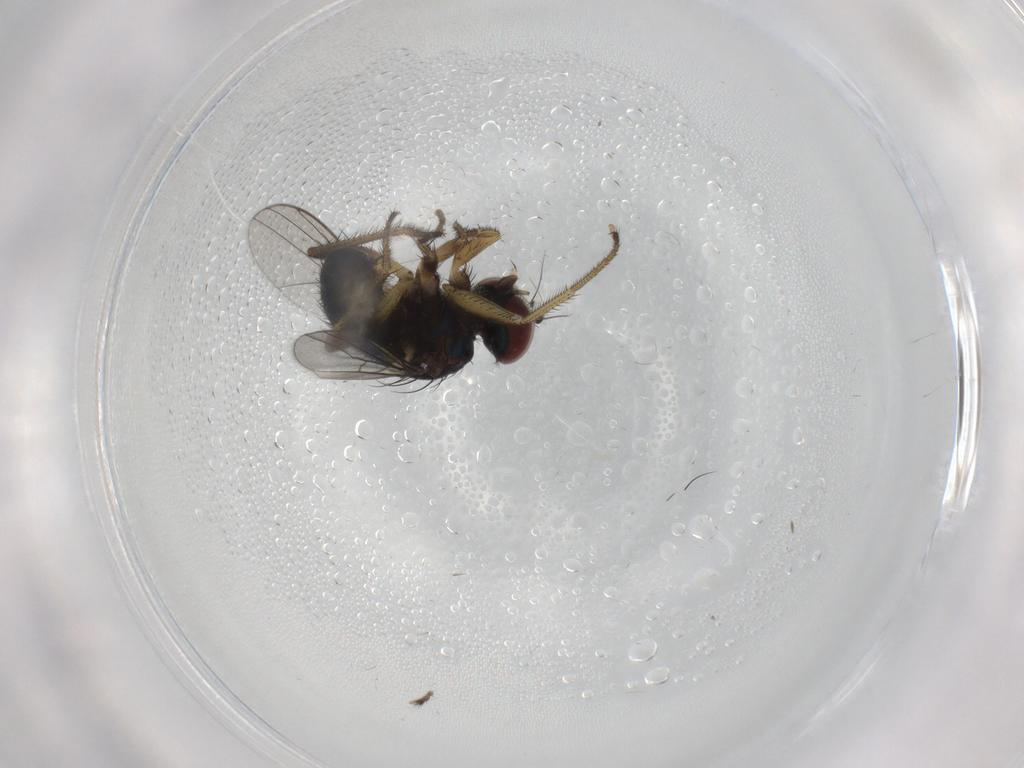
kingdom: Animalia
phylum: Arthropoda
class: Insecta
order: Diptera
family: Dolichopodidae
